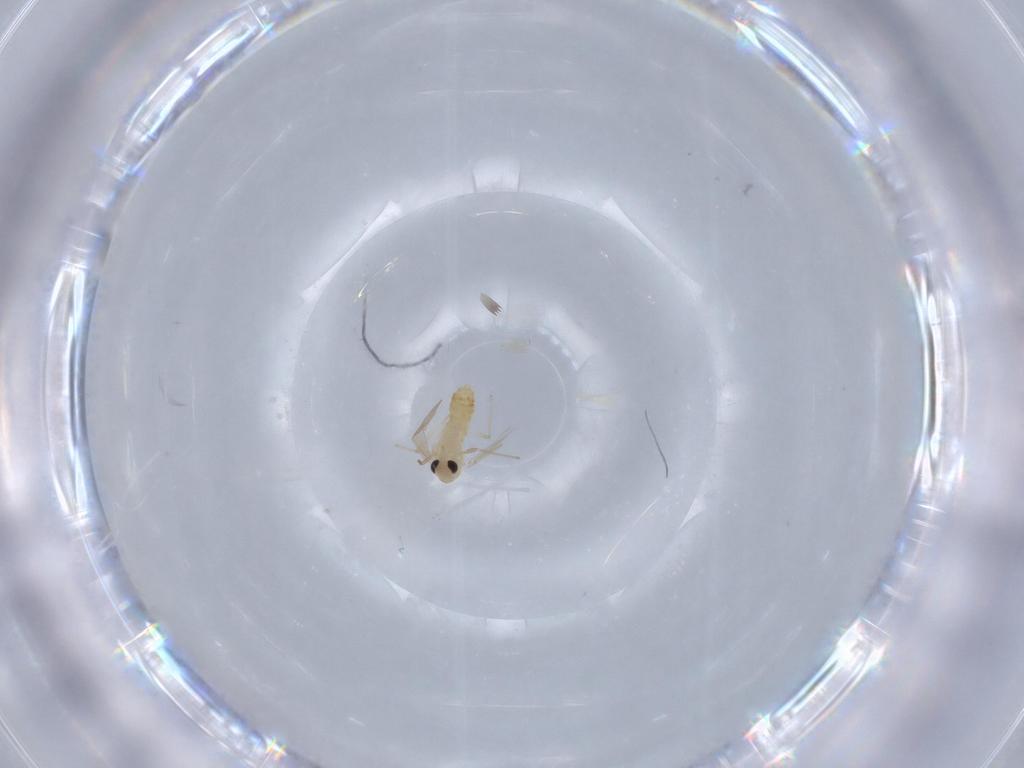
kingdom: Animalia
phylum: Arthropoda
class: Insecta
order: Diptera
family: Chironomidae
